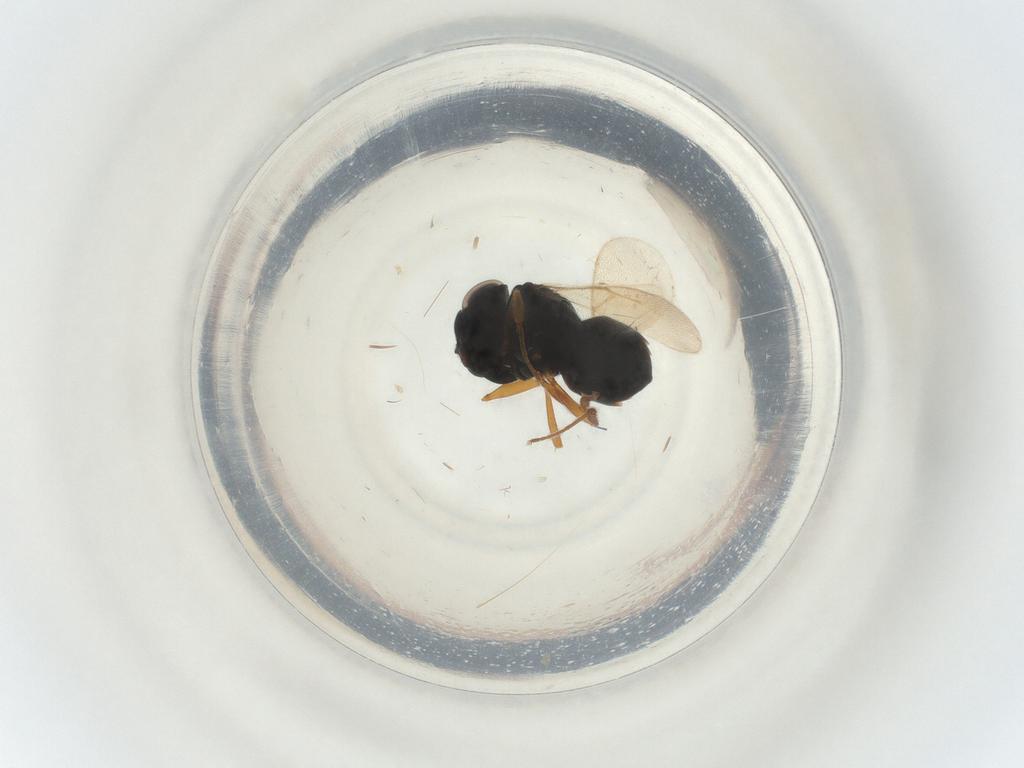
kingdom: Animalia
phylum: Arthropoda
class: Insecta
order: Hymenoptera
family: Scelionidae
